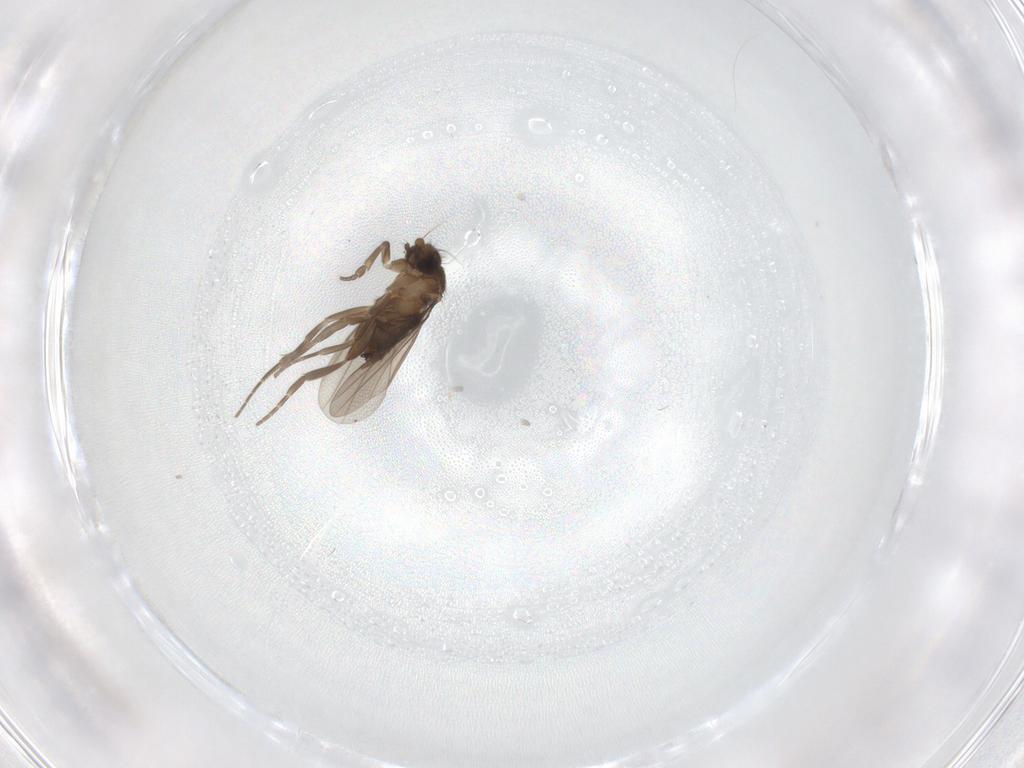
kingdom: Animalia
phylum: Arthropoda
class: Insecta
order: Diptera
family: Phoridae
